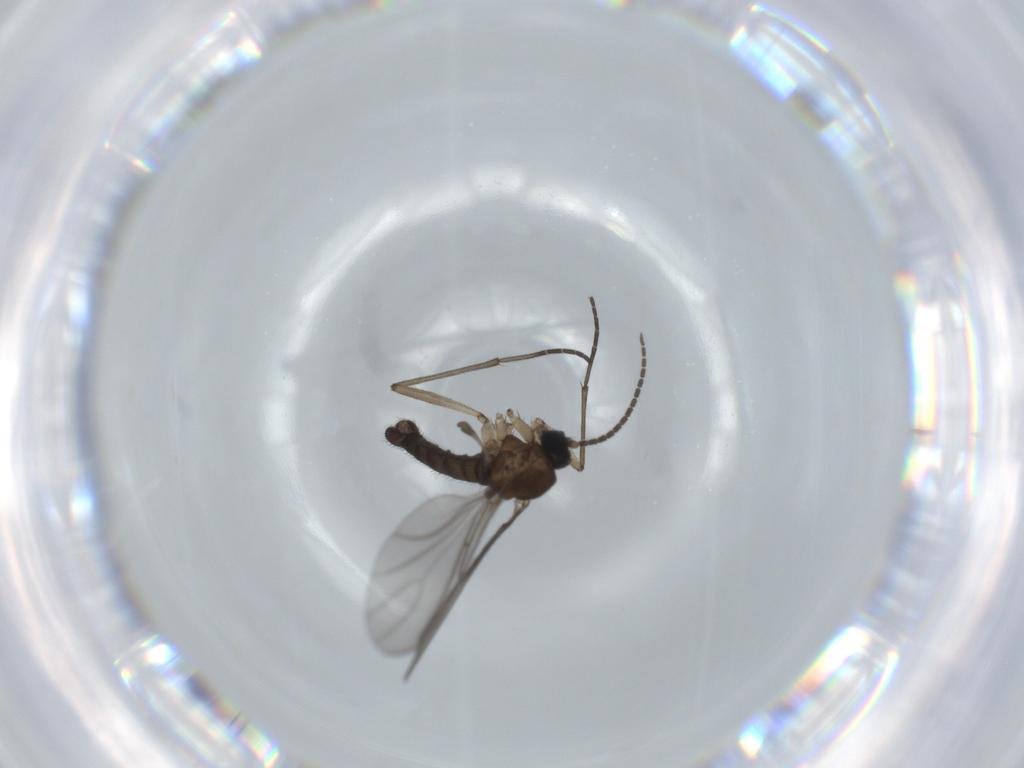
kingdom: Animalia
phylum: Arthropoda
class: Insecta
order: Diptera
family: Sciaridae
